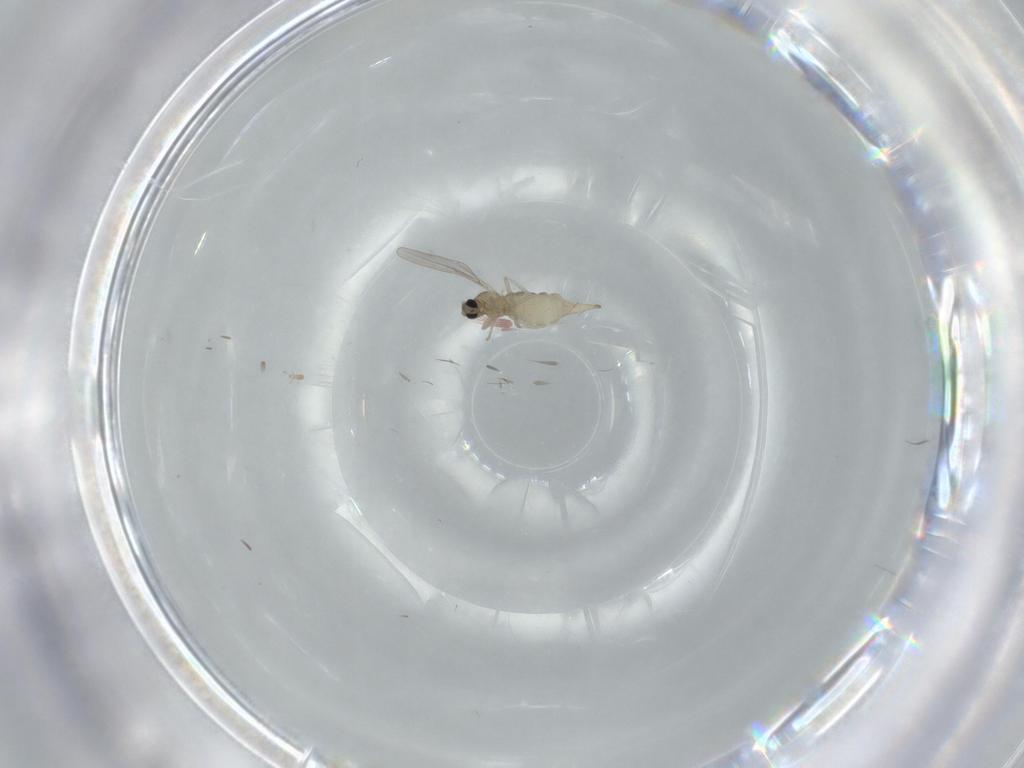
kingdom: Animalia
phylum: Arthropoda
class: Insecta
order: Diptera
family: Cecidomyiidae
